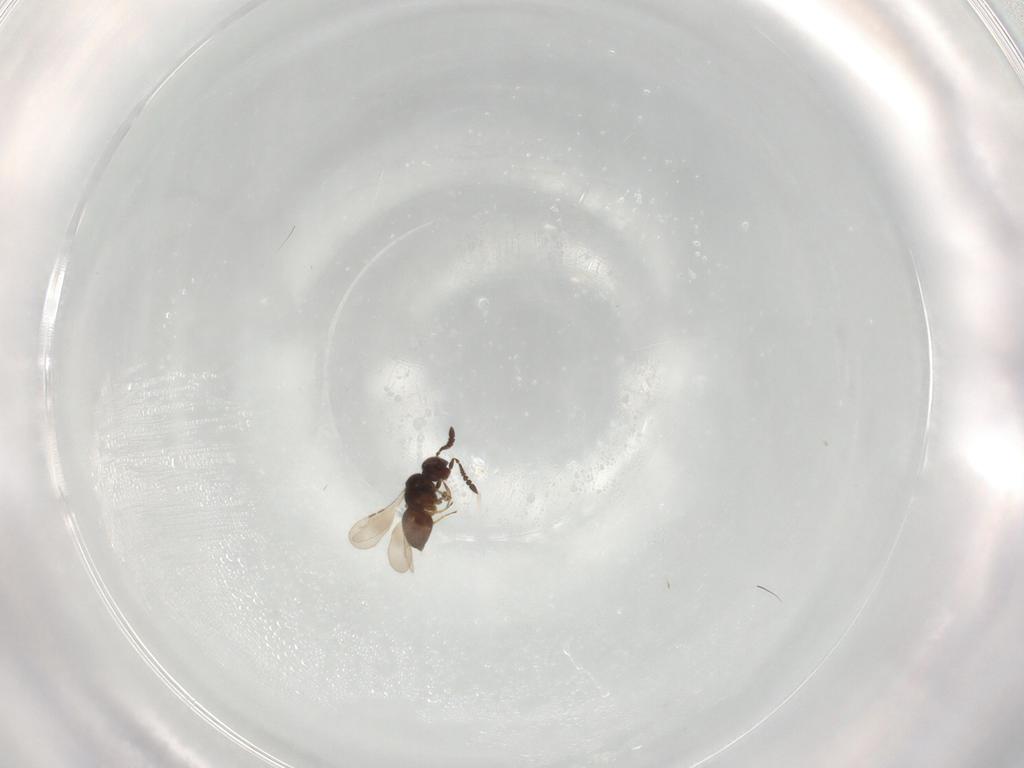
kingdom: Animalia
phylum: Arthropoda
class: Insecta
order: Hymenoptera
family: Ceraphronidae
